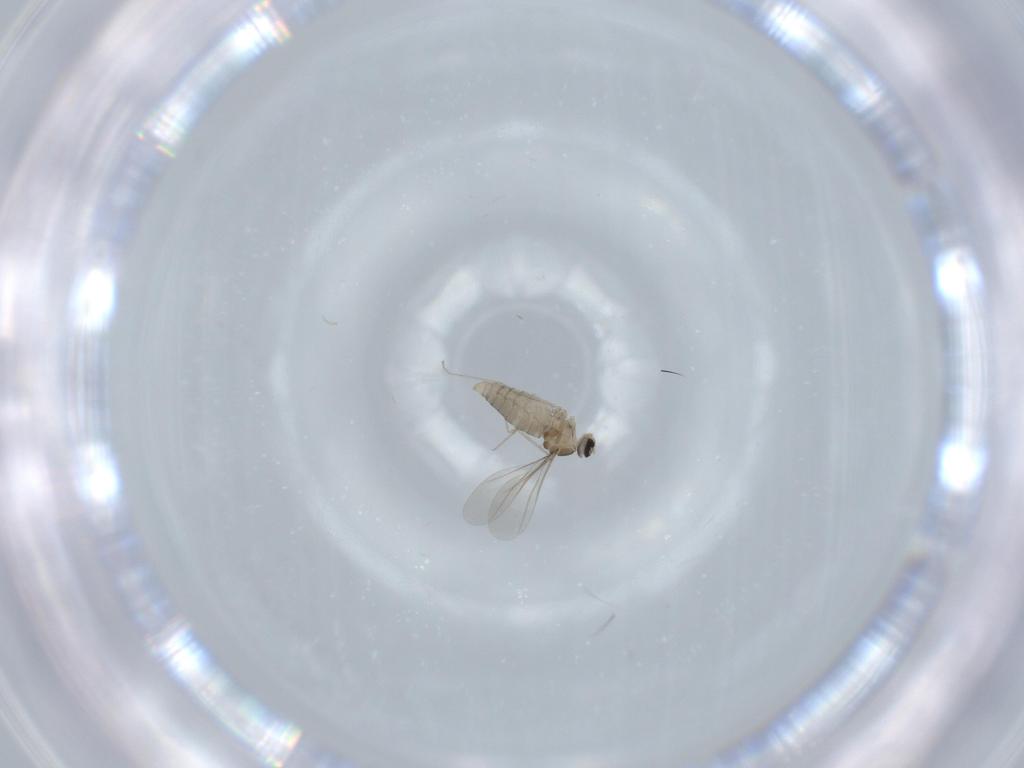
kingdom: Animalia
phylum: Arthropoda
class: Insecta
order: Diptera
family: Cecidomyiidae
